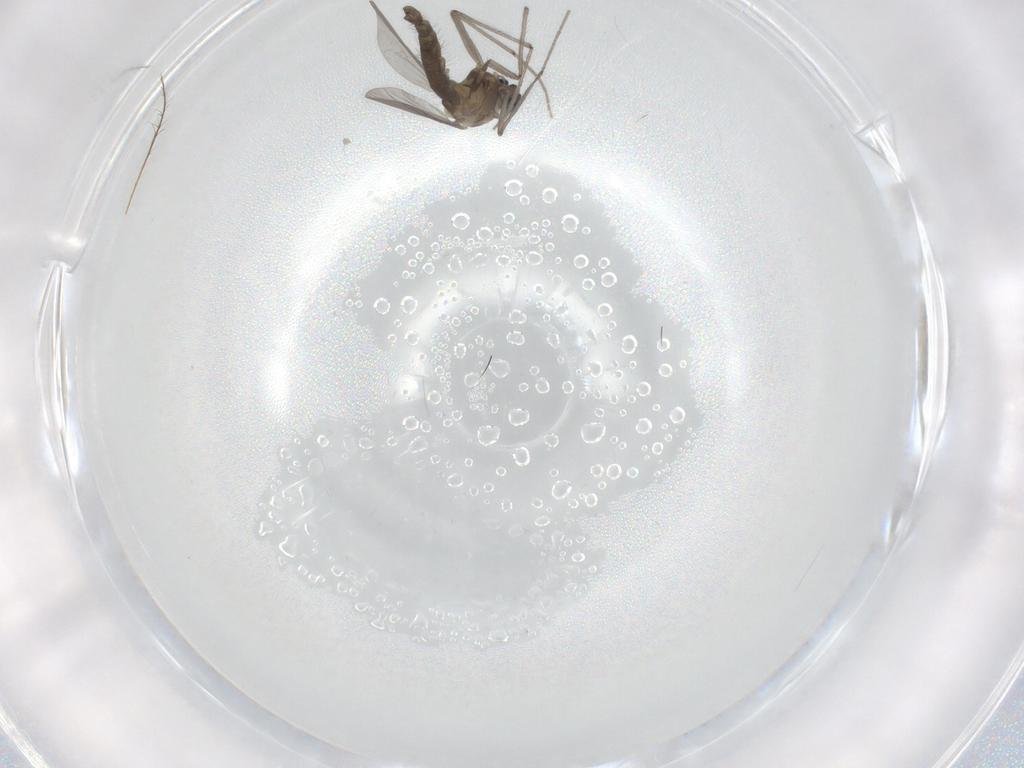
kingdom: Animalia
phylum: Arthropoda
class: Insecta
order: Diptera
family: Chironomidae
